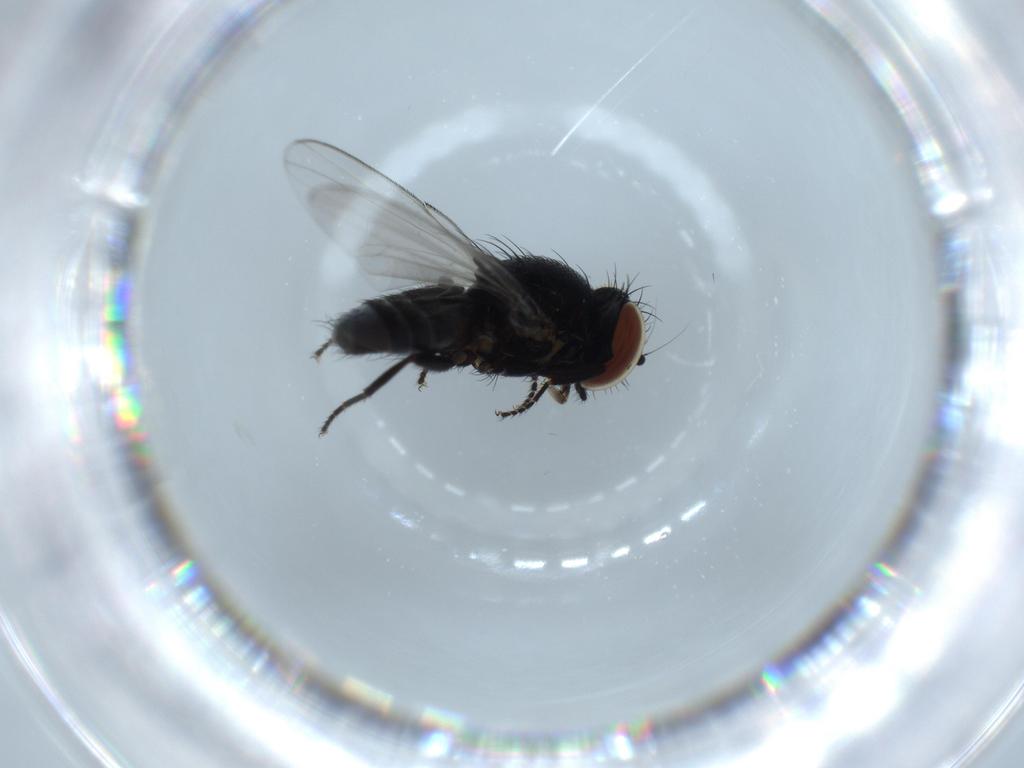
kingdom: Animalia
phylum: Arthropoda
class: Insecta
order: Diptera
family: Milichiidae
